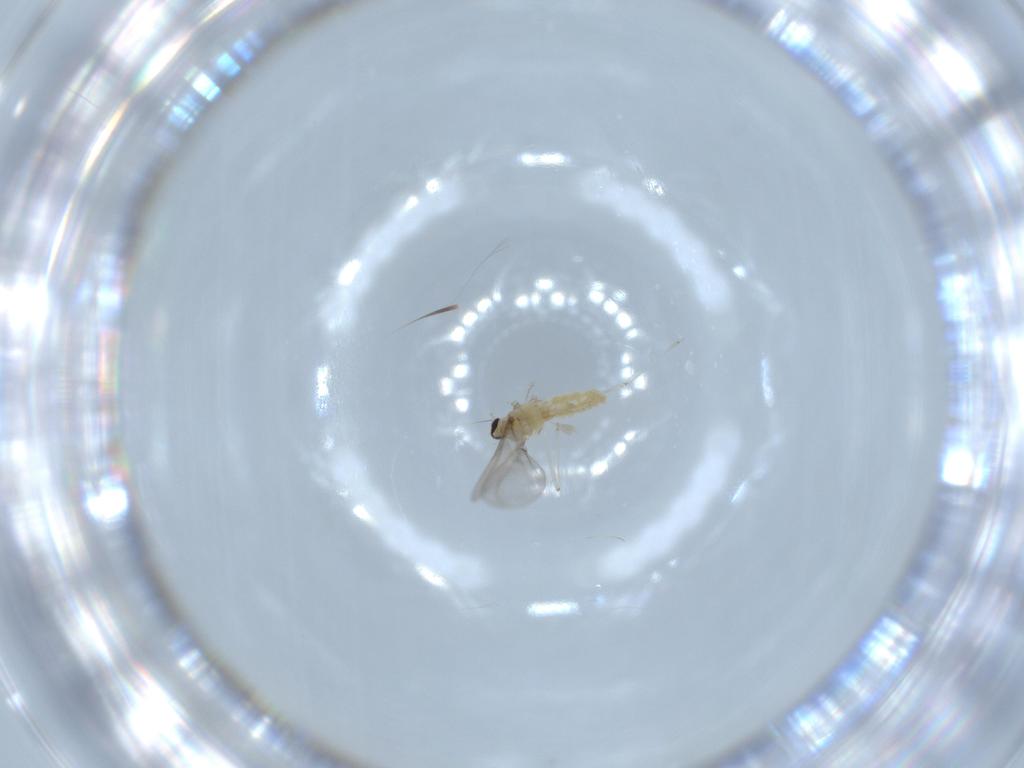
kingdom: Animalia
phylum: Arthropoda
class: Insecta
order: Diptera
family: Cecidomyiidae
